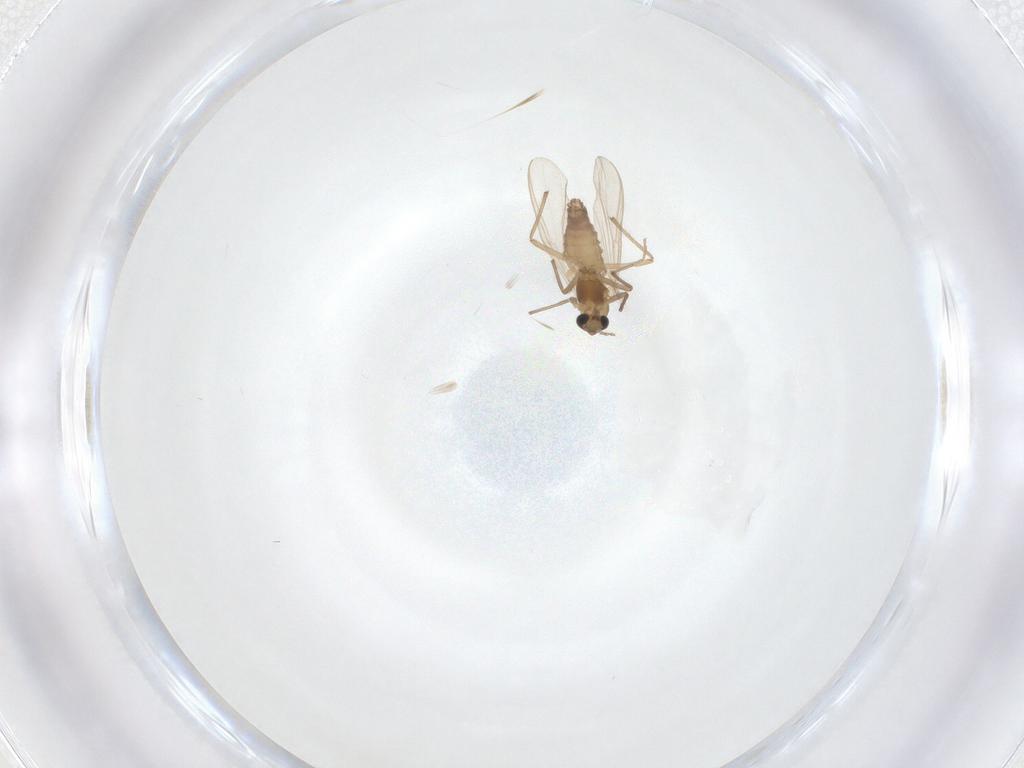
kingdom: Animalia
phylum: Arthropoda
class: Insecta
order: Diptera
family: Chironomidae
